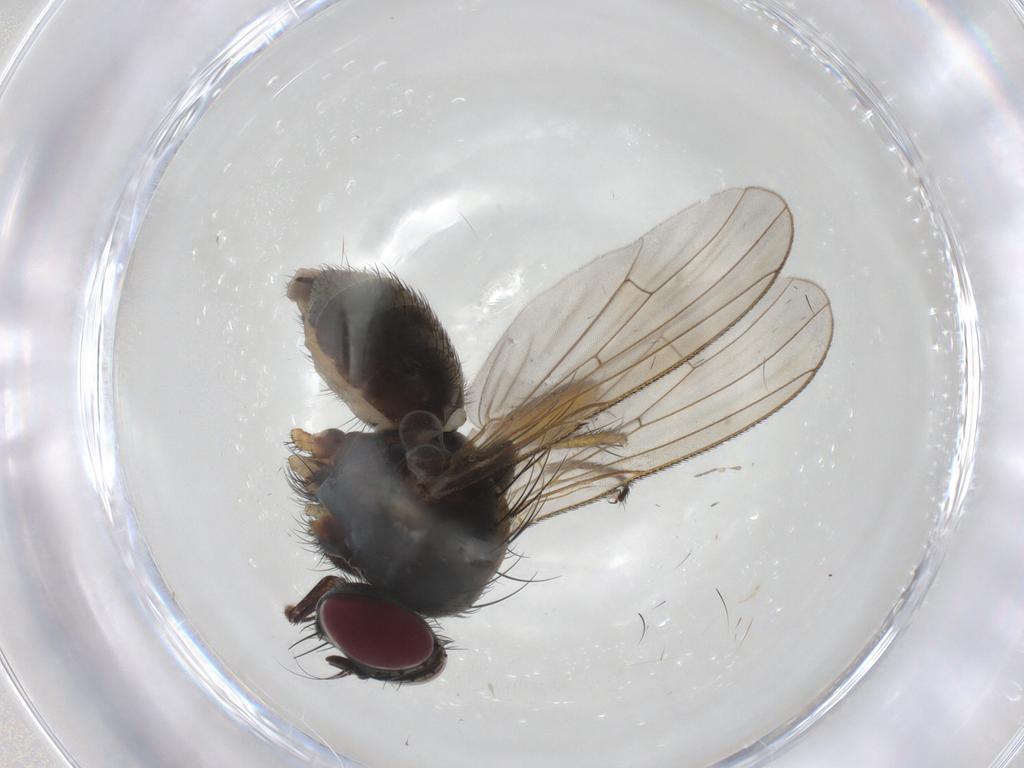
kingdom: Animalia
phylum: Arthropoda
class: Insecta
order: Diptera
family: Muscidae
